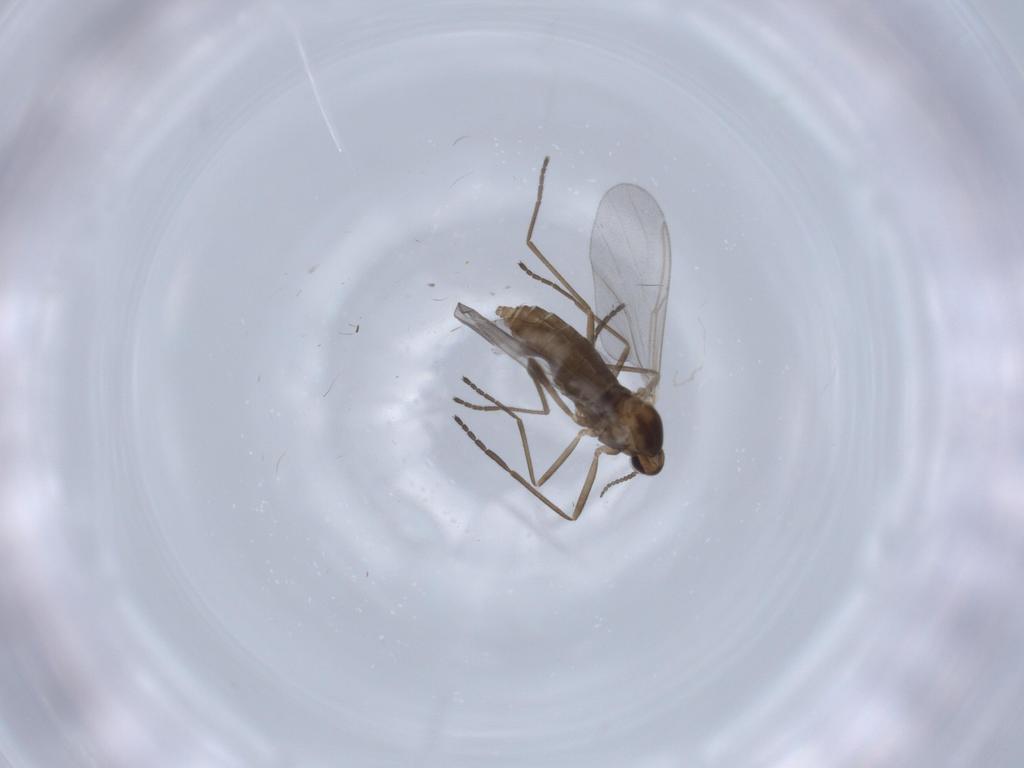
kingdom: Animalia
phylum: Arthropoda
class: Insecta
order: Diptera
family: Cecidomyiidae
